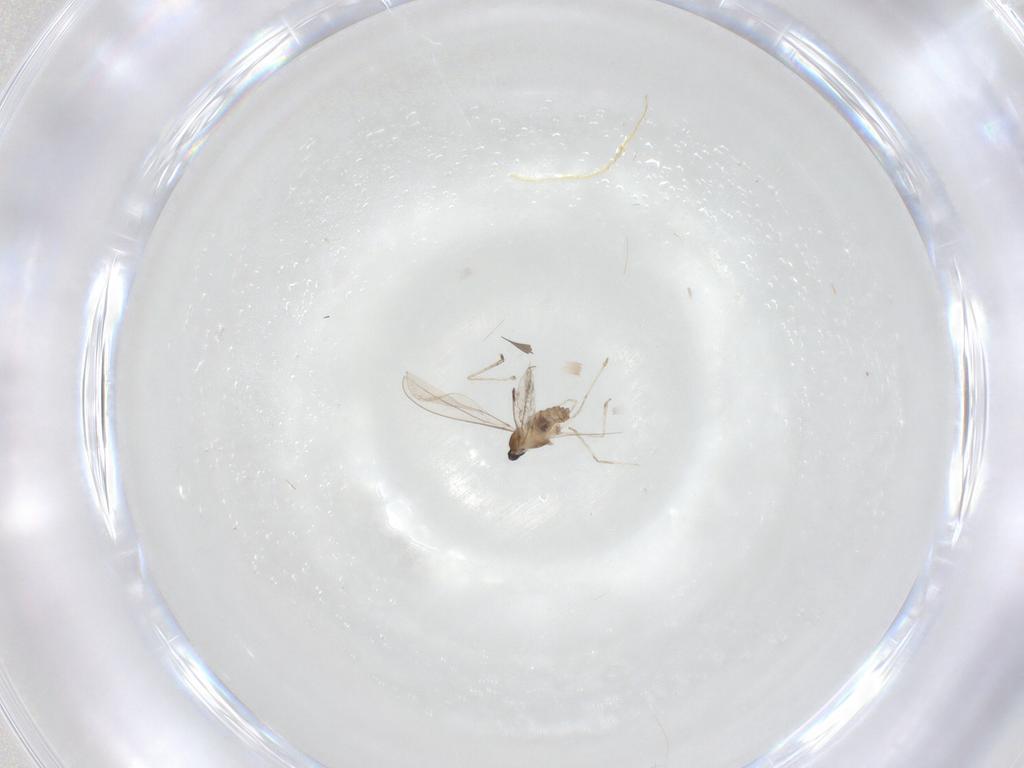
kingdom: Animalia
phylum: Arthropoda
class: Insecta
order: Diptera
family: Cecidomyiidae
